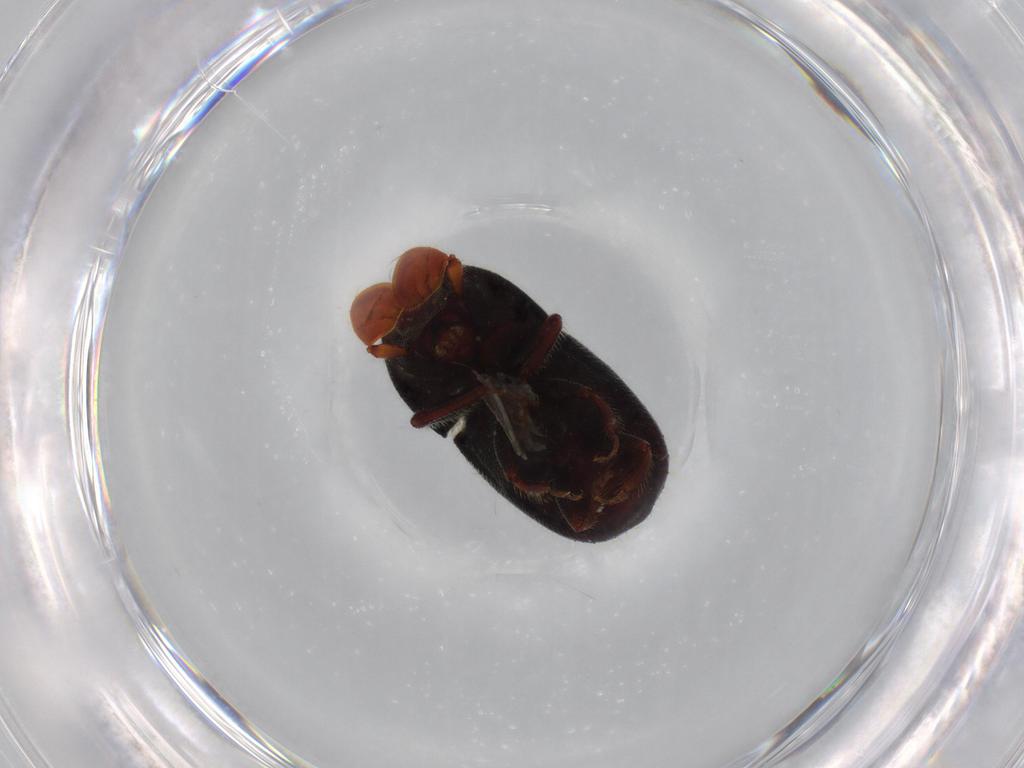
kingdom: Animalia
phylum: Arthropoda
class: Insecta
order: Coleoptera
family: Curculionidae
